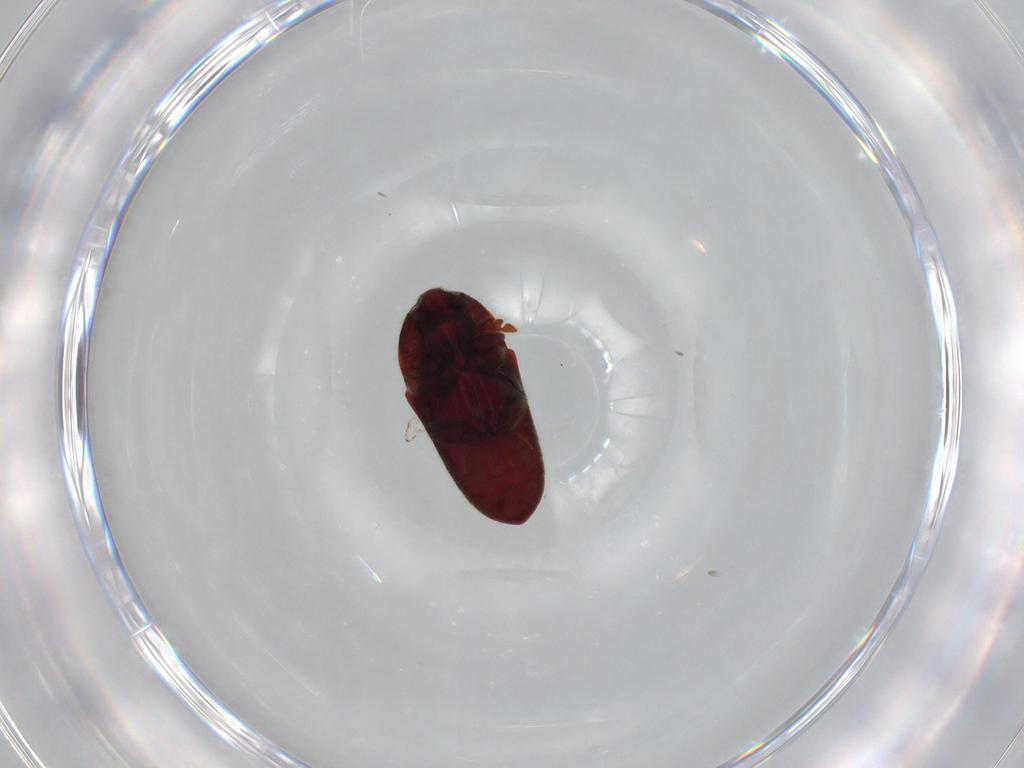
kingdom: Animalia
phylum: Arthropoda
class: Insecta
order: Coleoptera
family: Throscidae
